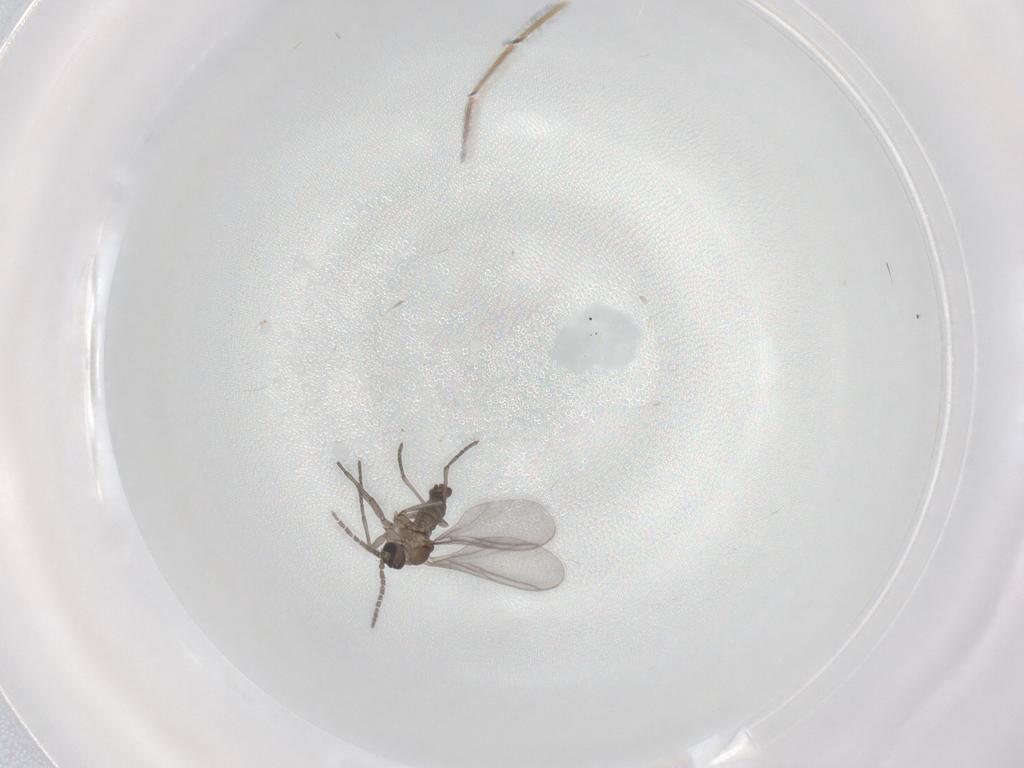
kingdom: Animalia
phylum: Arthropoda
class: Insecta
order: Diptera
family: Sciaridae
